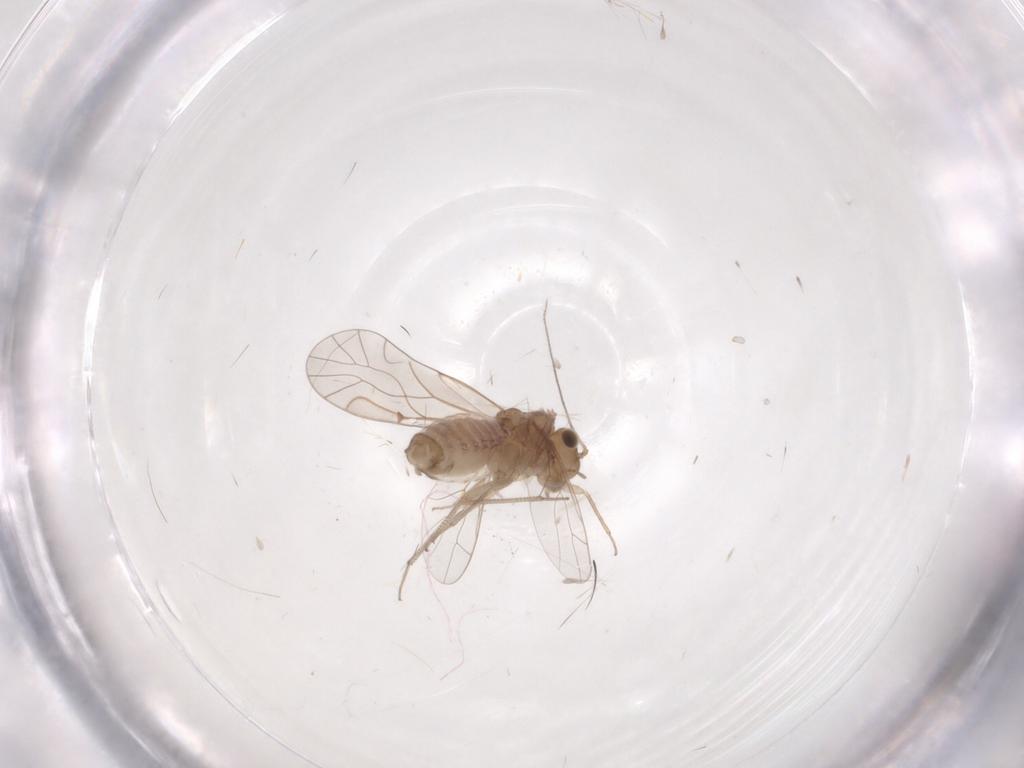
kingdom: Animalia
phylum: Arthropoda
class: Insecta
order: Psocodea
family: Lachesillidae
